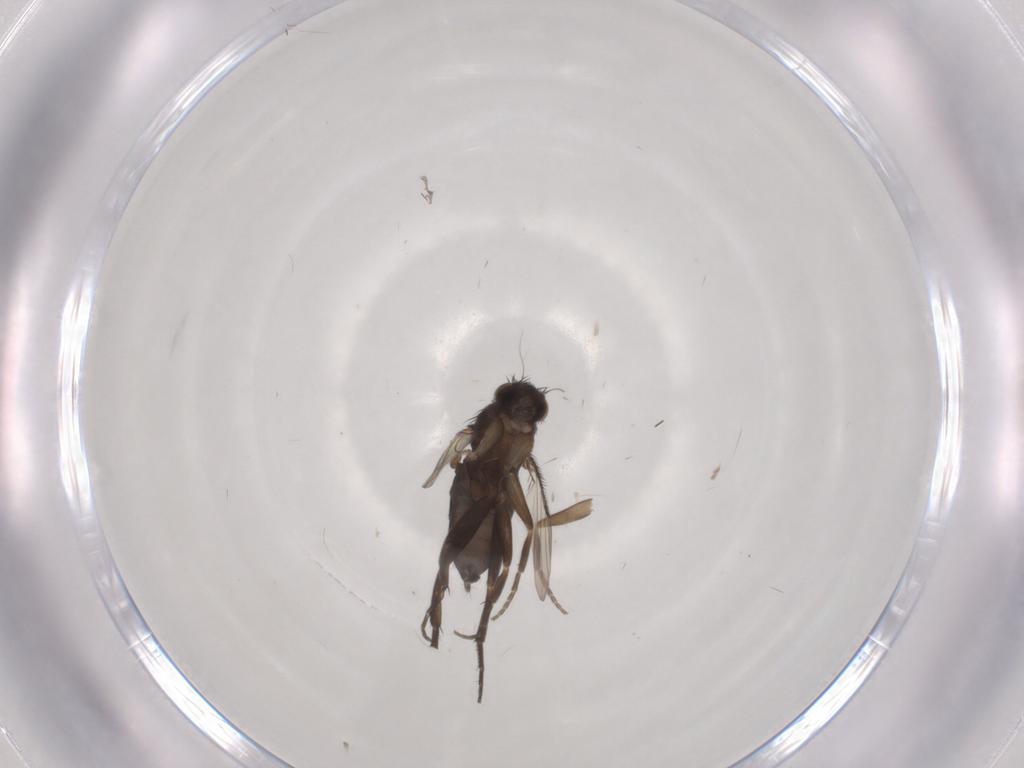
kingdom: Animalia
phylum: Arthropoda
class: Insecta
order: Diptera
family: Phoridae
